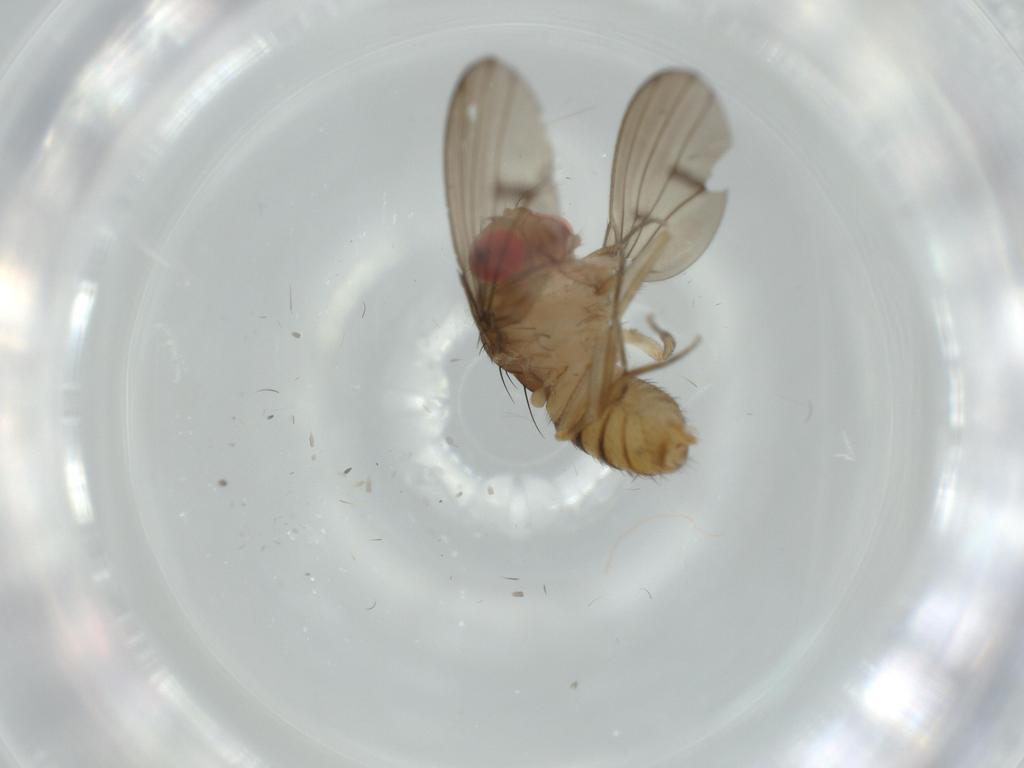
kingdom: Animalia
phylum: Arthropoda
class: Insecta
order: Diptera
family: Drosophilidae
